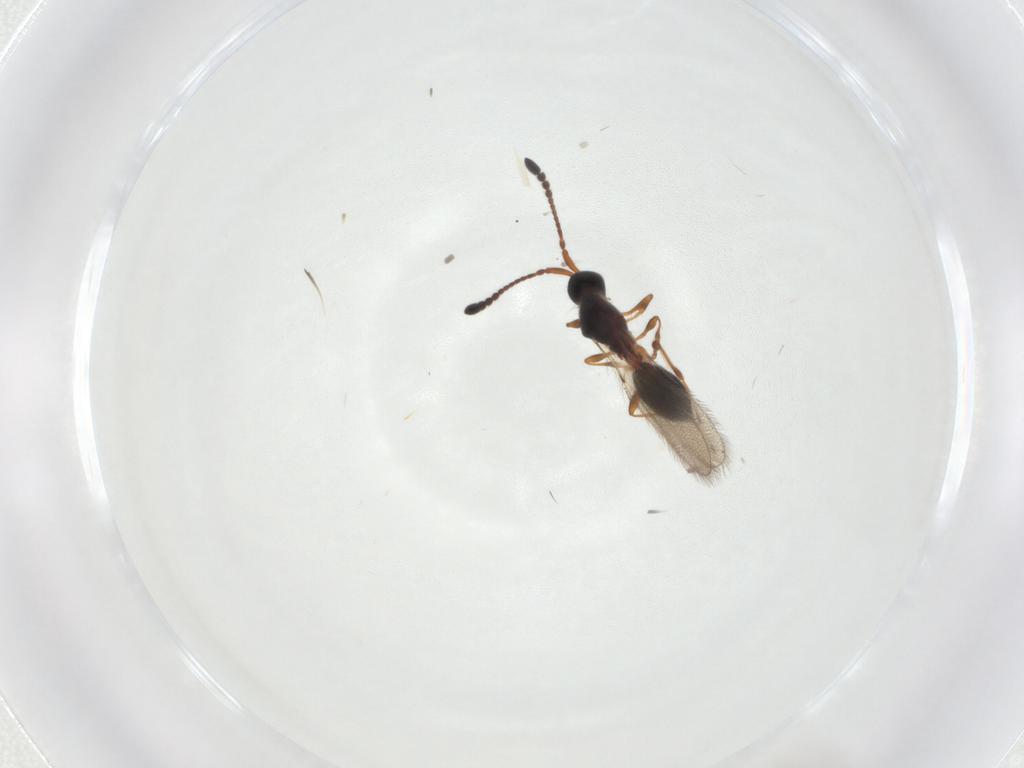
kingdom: Animalia
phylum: Arthropoda
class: Insecta
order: Hymenoptera
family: Diapriidae
